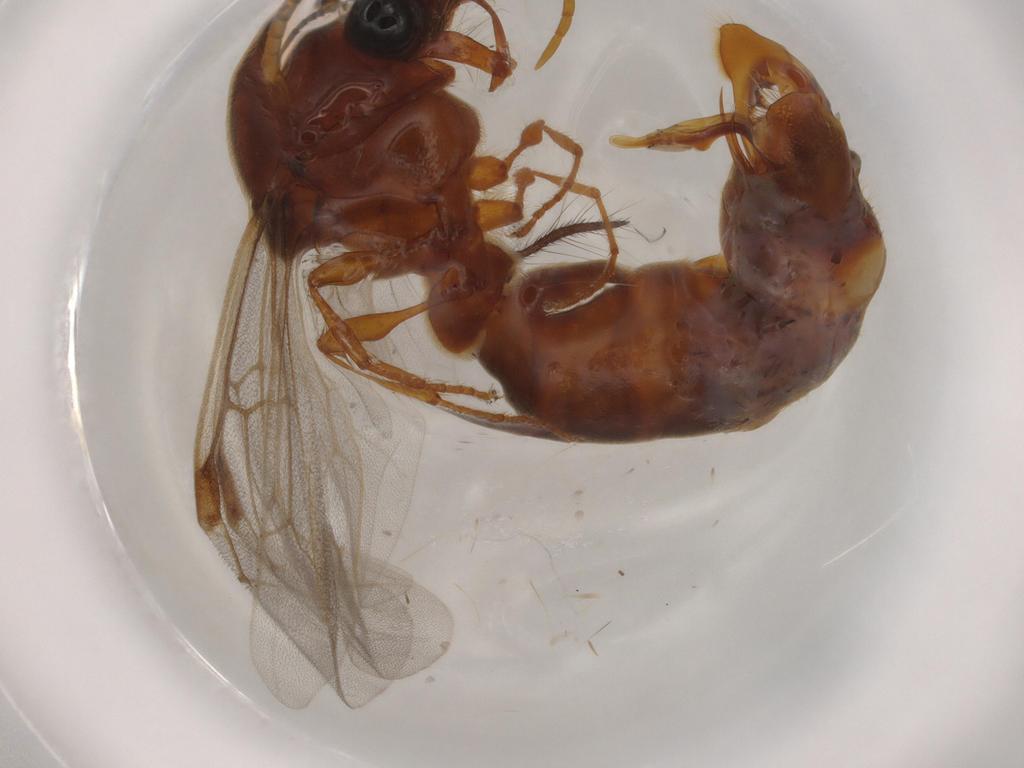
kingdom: Animalia
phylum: Arthropoda
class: Insecta
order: Hymenoptera
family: Formicidae
